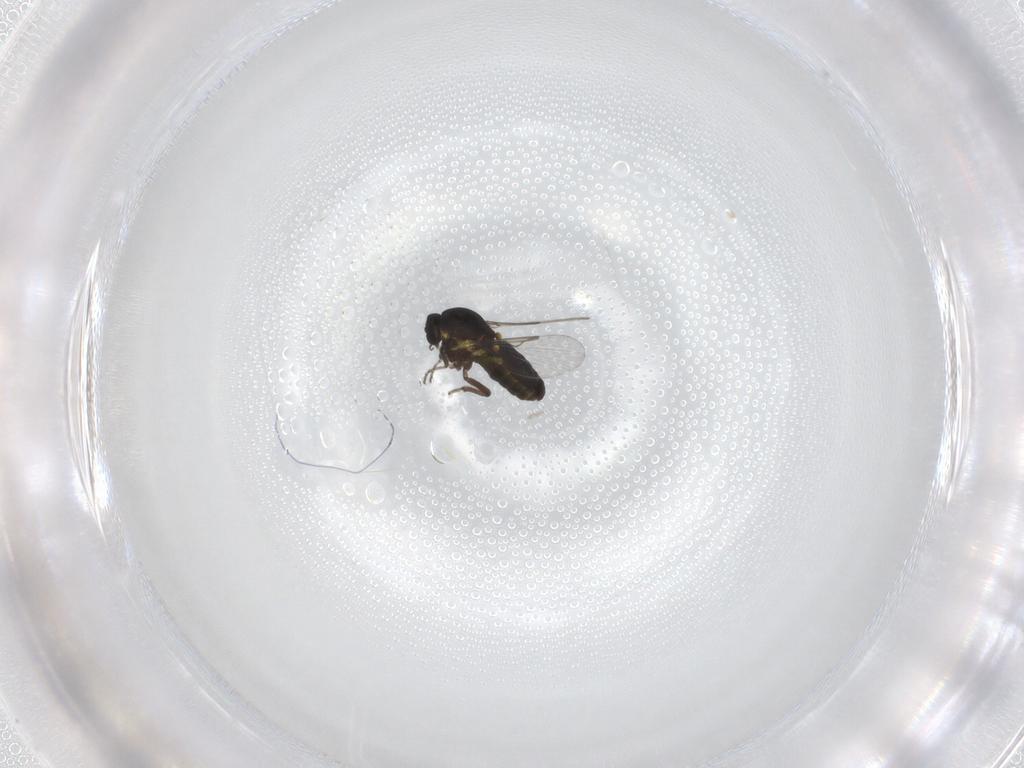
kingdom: Animalia
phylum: Arthropoda
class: Insecta
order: Diptera
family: Ceratopogonidae
